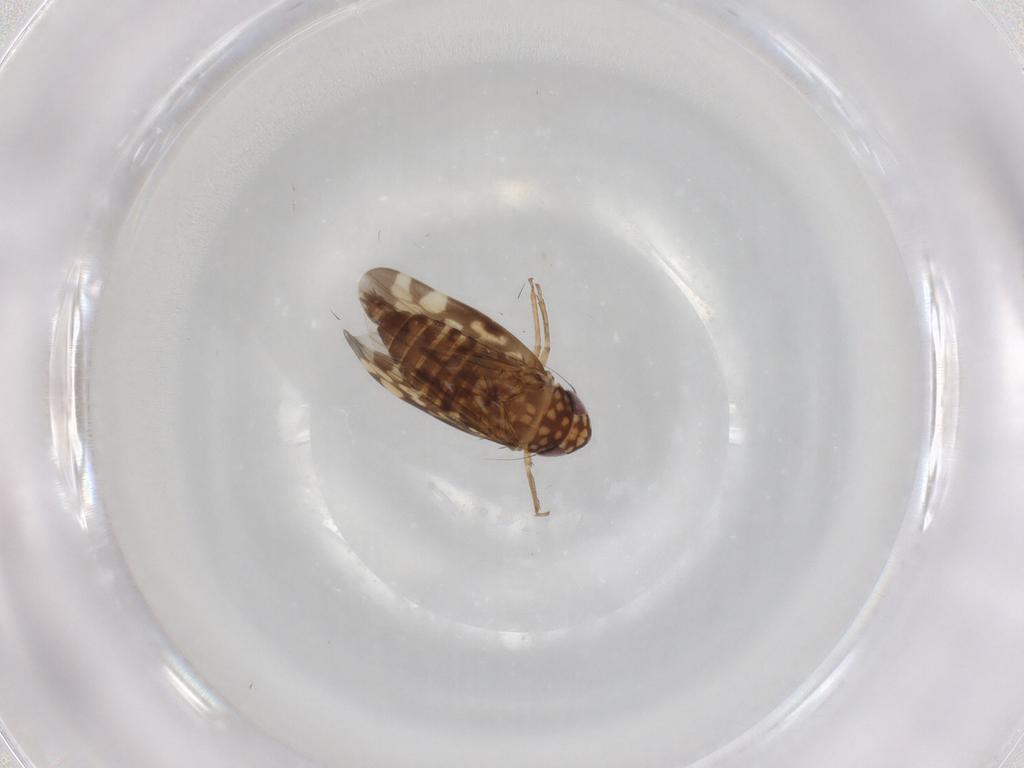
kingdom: Animalia
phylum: Arthropoda
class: Insecta
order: Hemiptera
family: Cicadellidae
